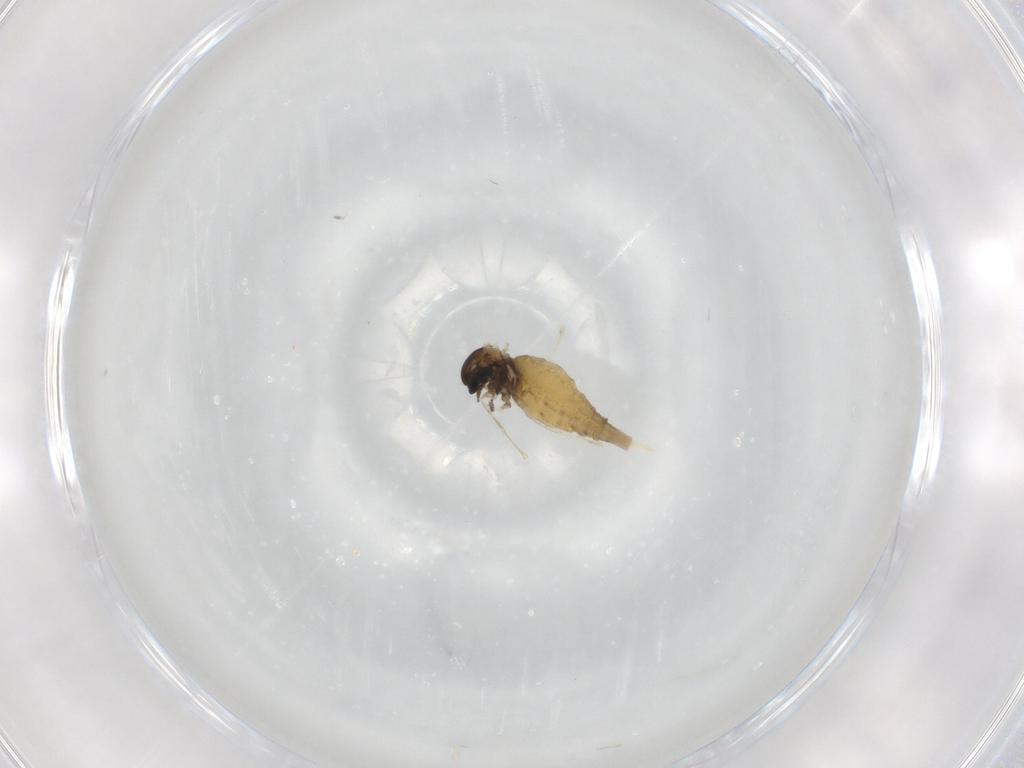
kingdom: Animalia
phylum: Arthropoda
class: Insecta
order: Diptera
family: Cecidomyiidae
